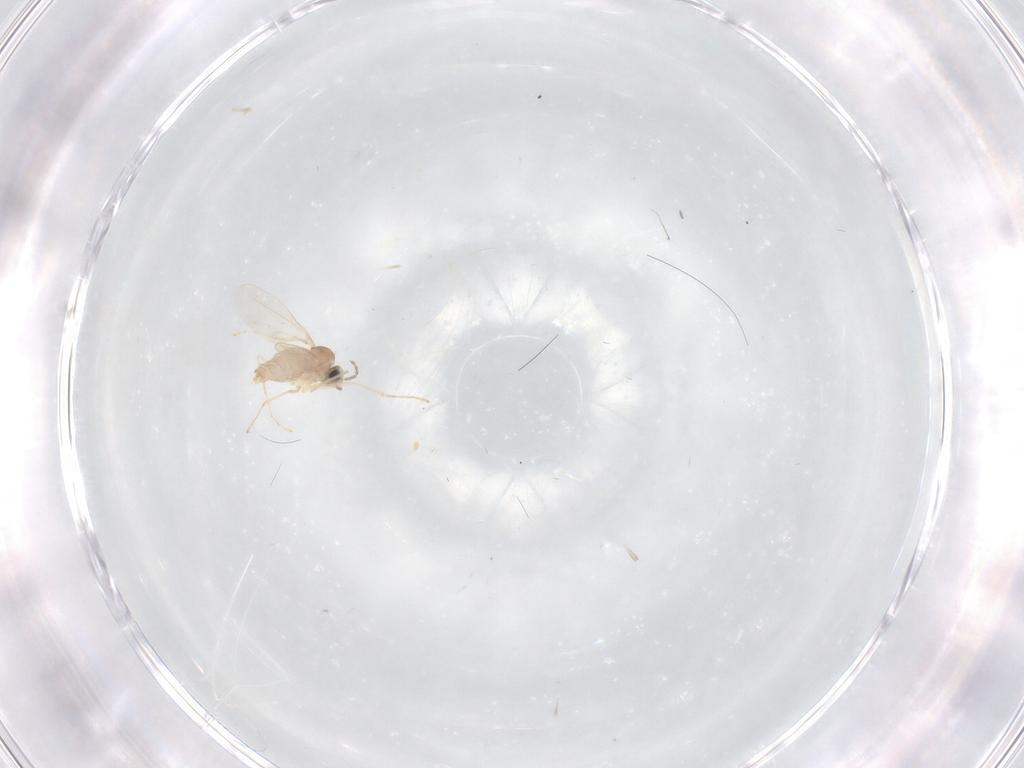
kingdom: Animalia
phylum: Arthropoda
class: Insecta
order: Diptera
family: Cecidomyiidae
